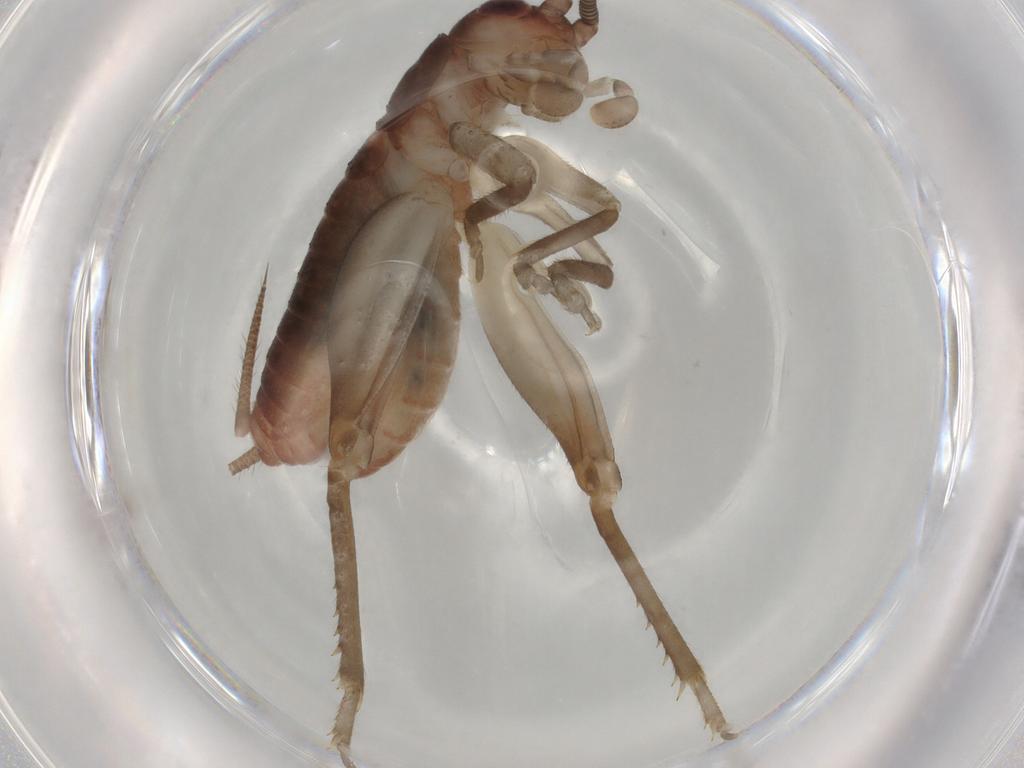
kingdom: Animalia
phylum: Arthropoda
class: Insecta
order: Orthoptera
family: Gryllidae
